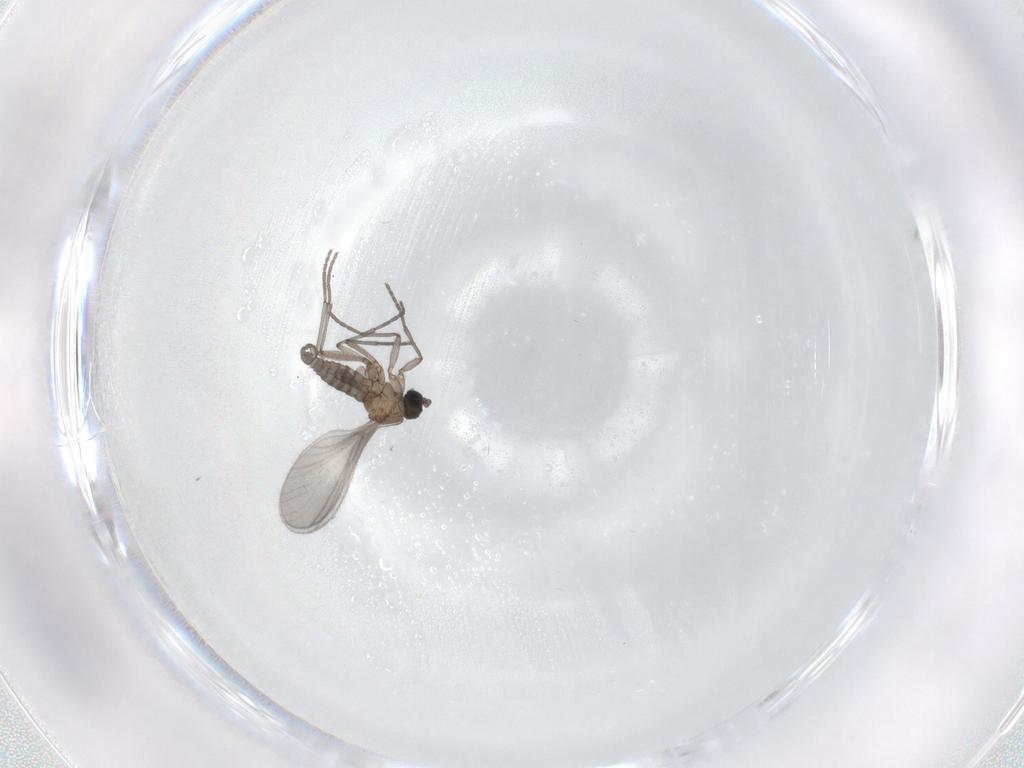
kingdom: Animalia
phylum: Arthropoda
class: Insecta
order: Diptera
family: Sciaridae
